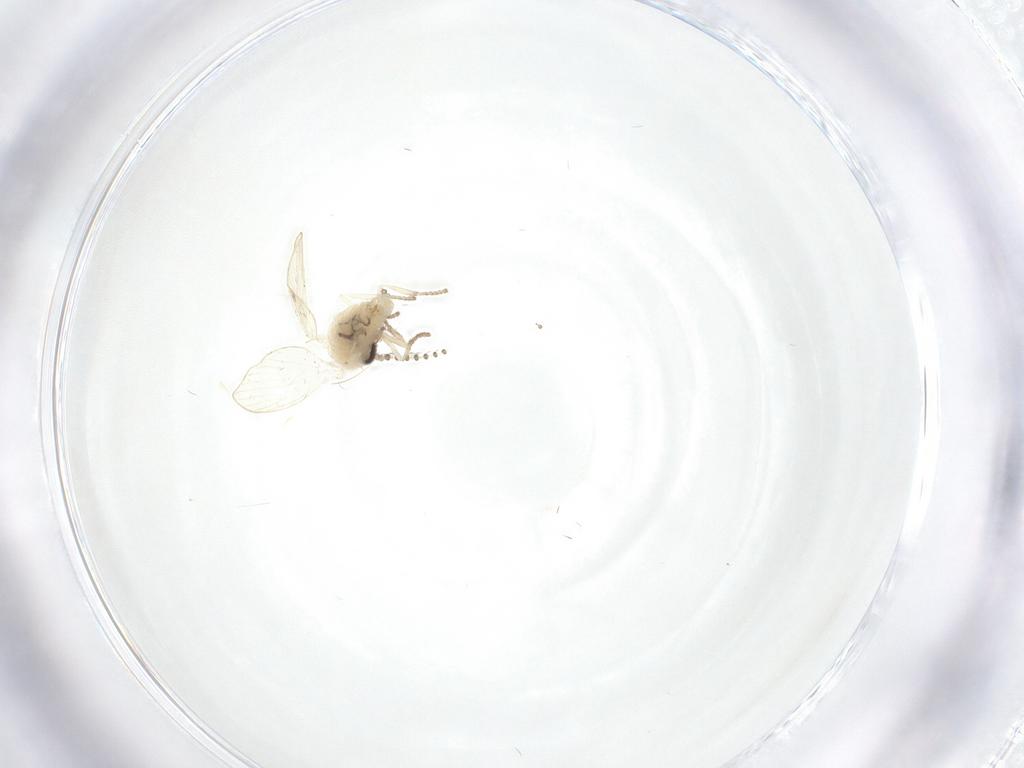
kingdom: Animalia
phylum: Arthropoda
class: Insecta
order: Diptera
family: Psychodidae
